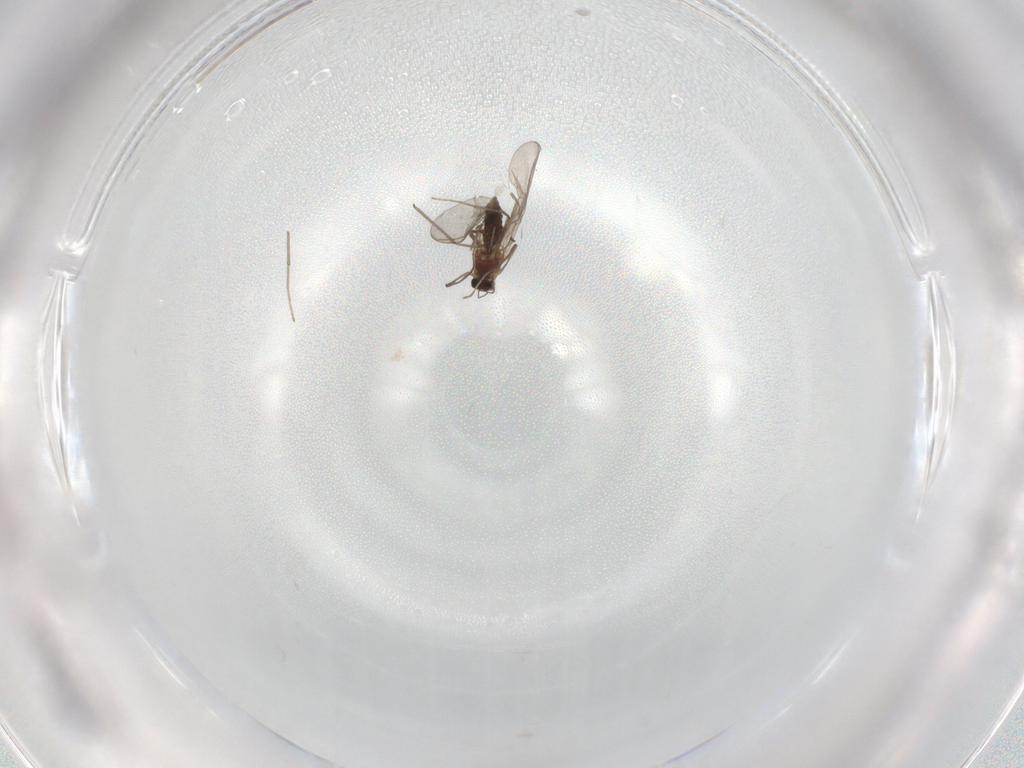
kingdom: Animalia
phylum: Arthropoda
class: Insecta
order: Diptera
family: Chironomidae
